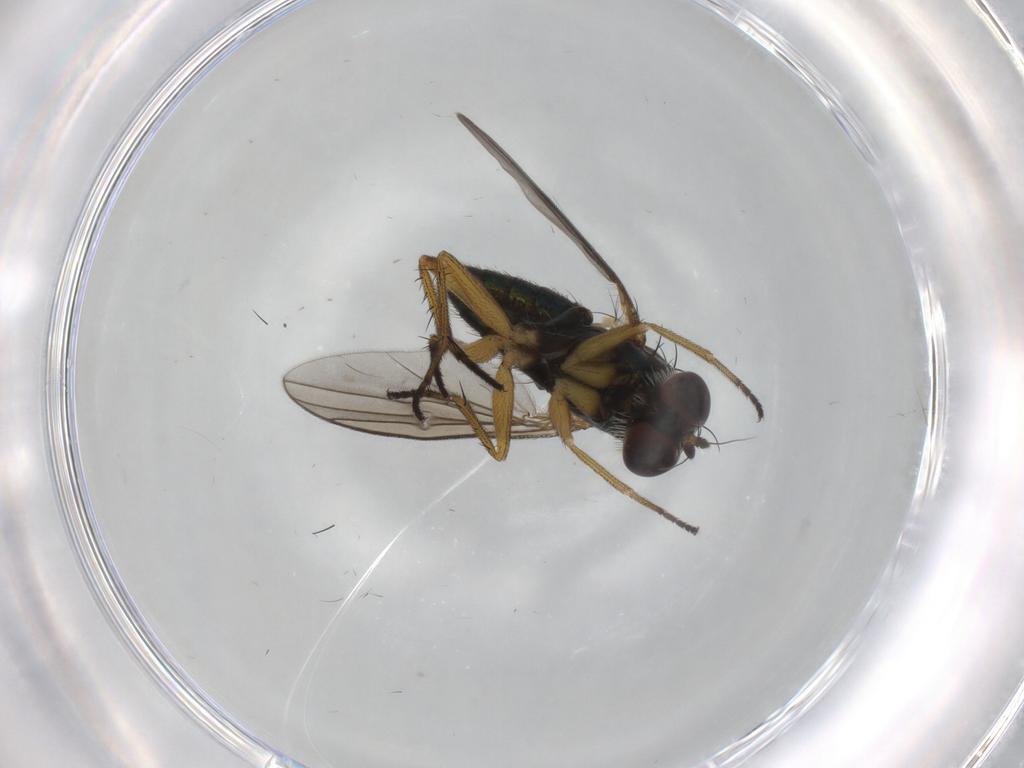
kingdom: Animalia
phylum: Arthropoda
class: Insecta
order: Diptera
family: Dolichopodidae
